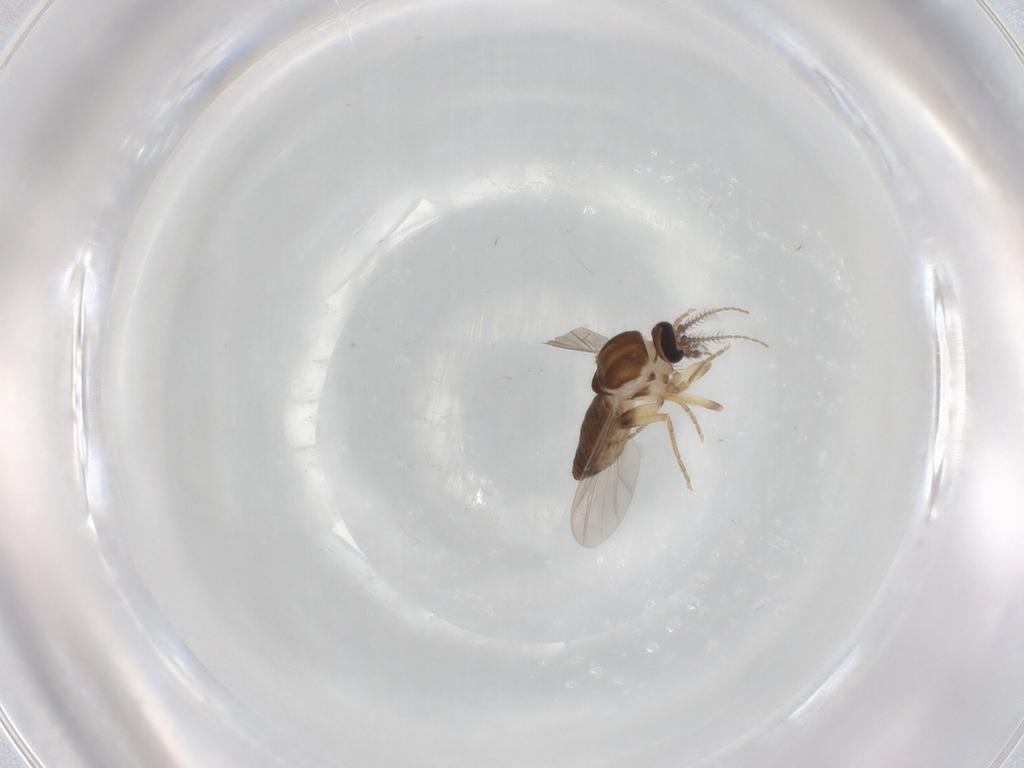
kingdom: Animalia
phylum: Arthropoda
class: Insecta
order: Diptera
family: Ceratopogonidae
